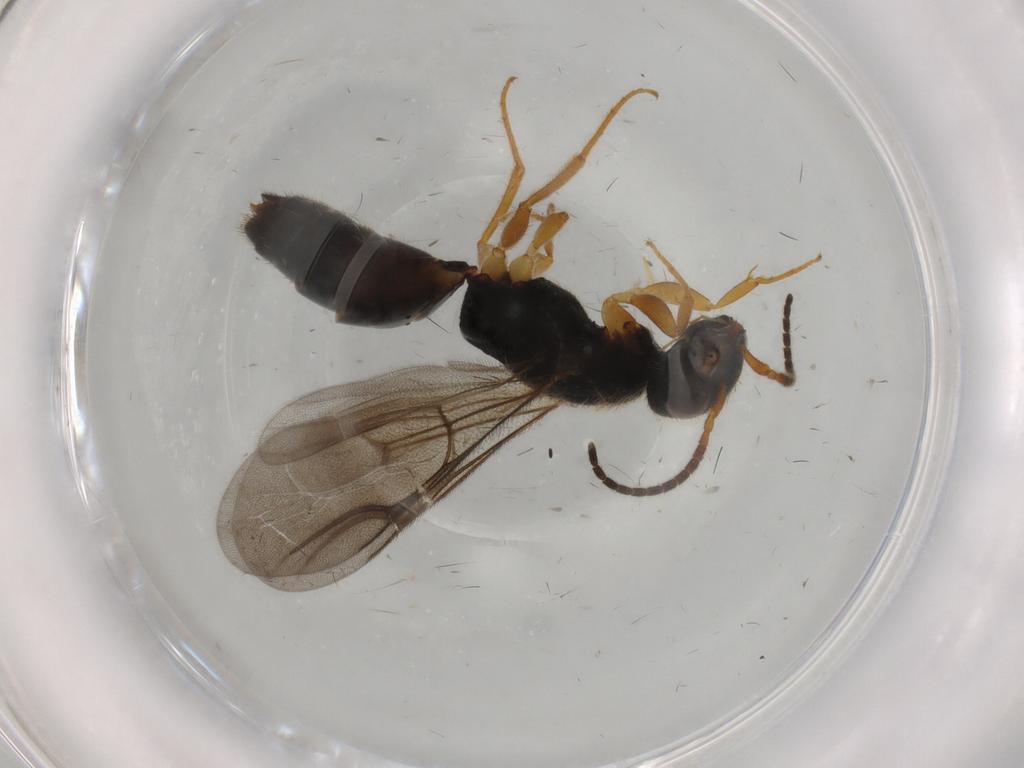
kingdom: Animalia
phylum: Arthropoda
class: Insecta
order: Hymenoptera
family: Bethylidae
